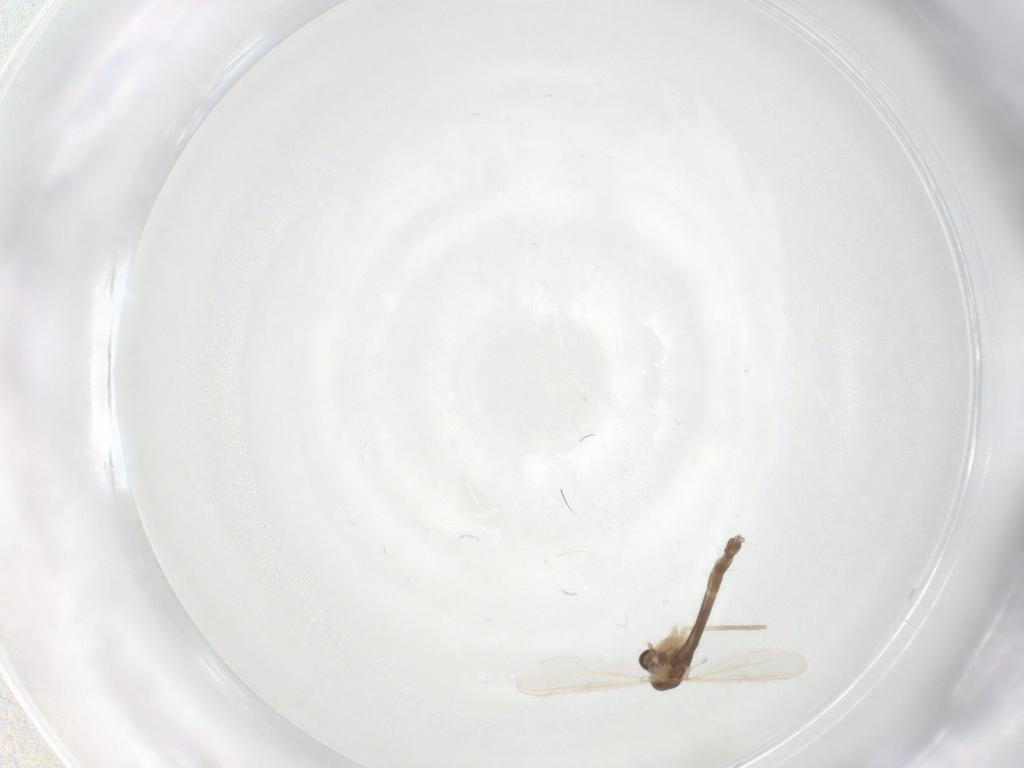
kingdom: Animalia
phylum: Arthropoda
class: Insecta
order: Diptera
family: Chironomidae
